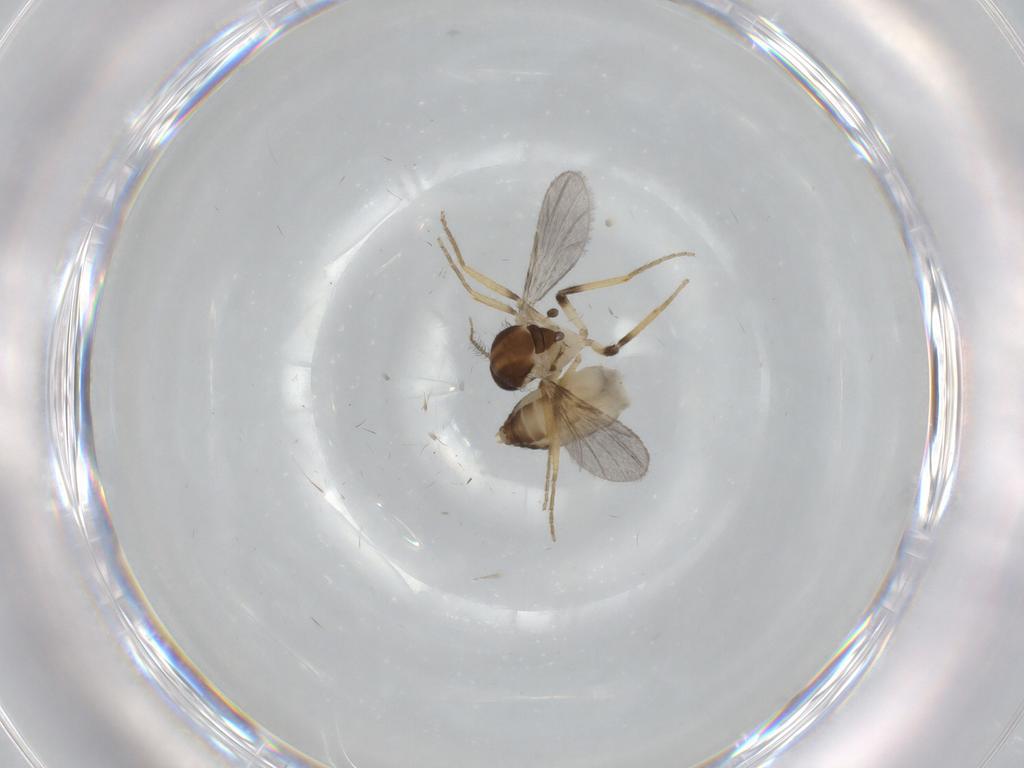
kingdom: Animalia
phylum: Arthropoda
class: Insecta
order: Diptera
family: Ceratopogonidae
